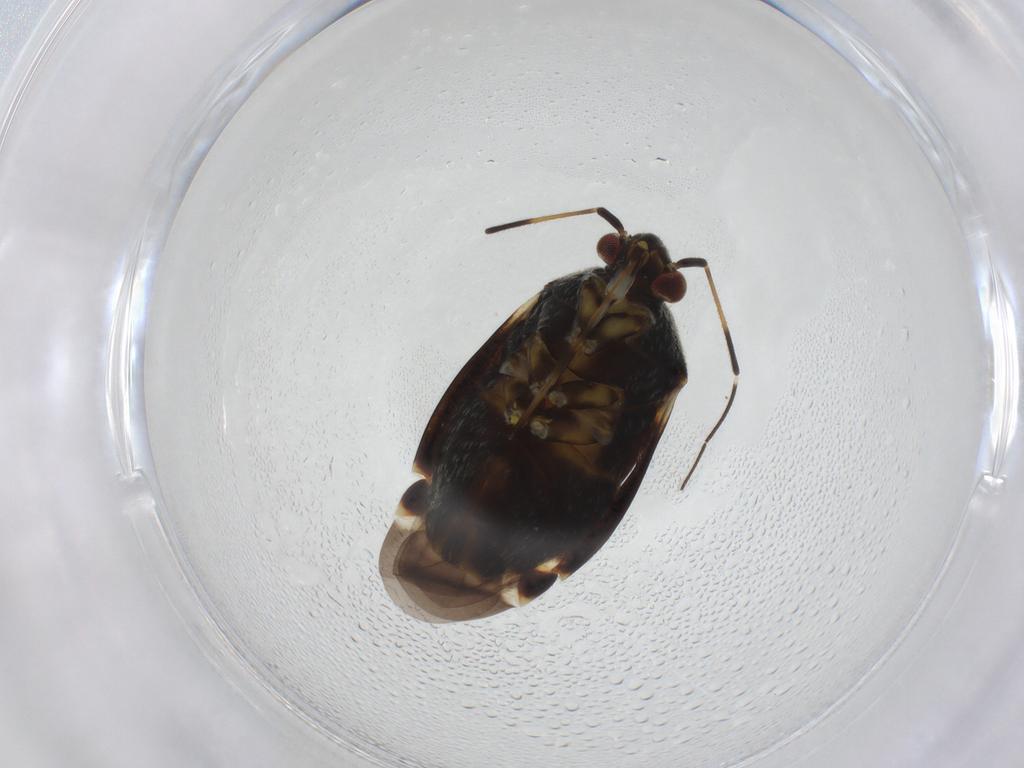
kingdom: Animalia
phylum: Arthropoda
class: Insecta
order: Hemiptera
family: Miridae
